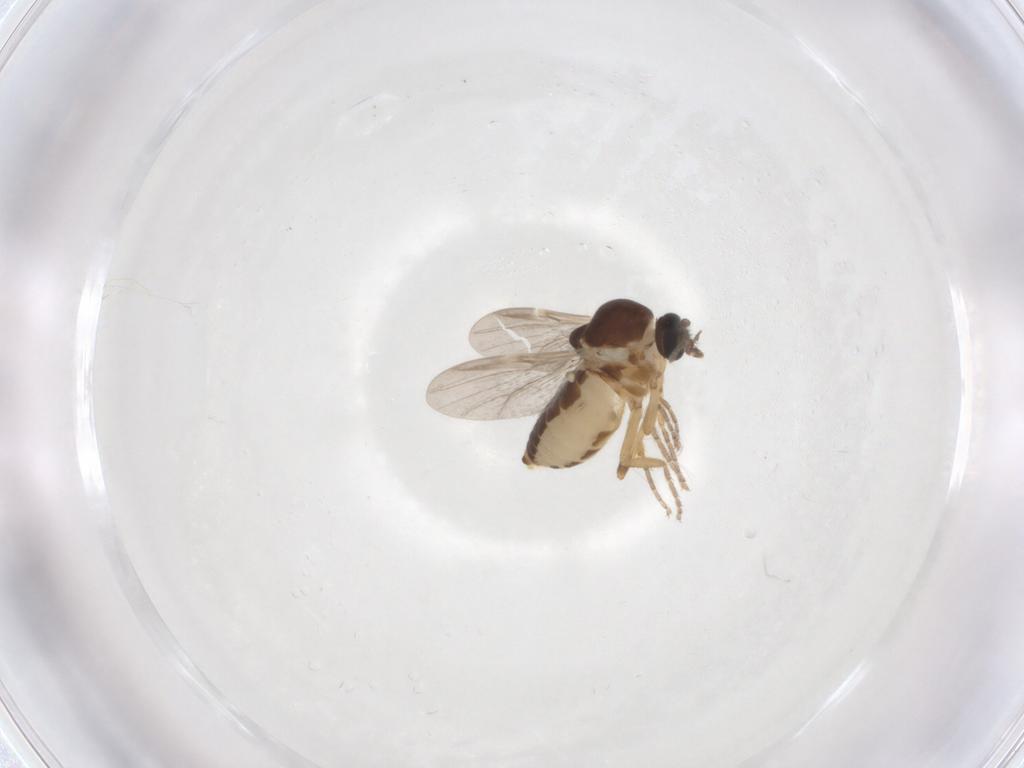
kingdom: Animalia
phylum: Arthropoda
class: Insecta
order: Diptera
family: Ceratopogonidae
